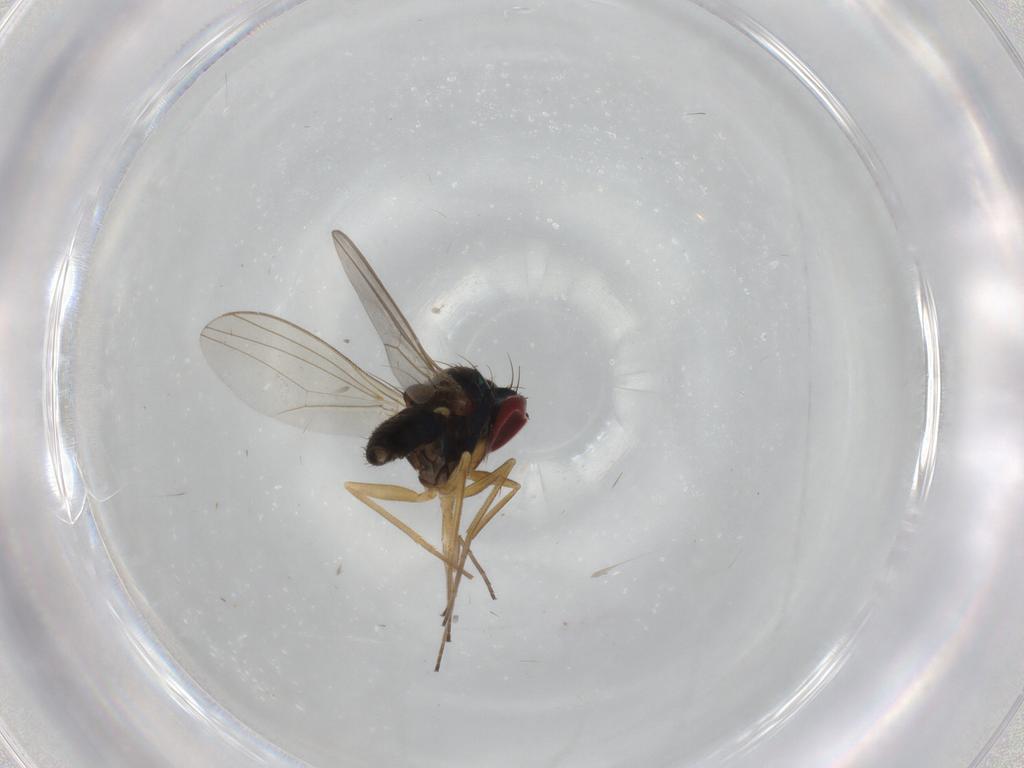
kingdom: Animalia
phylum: Arthropoda
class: Insecta
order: Diptera
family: Dolichopodidae
